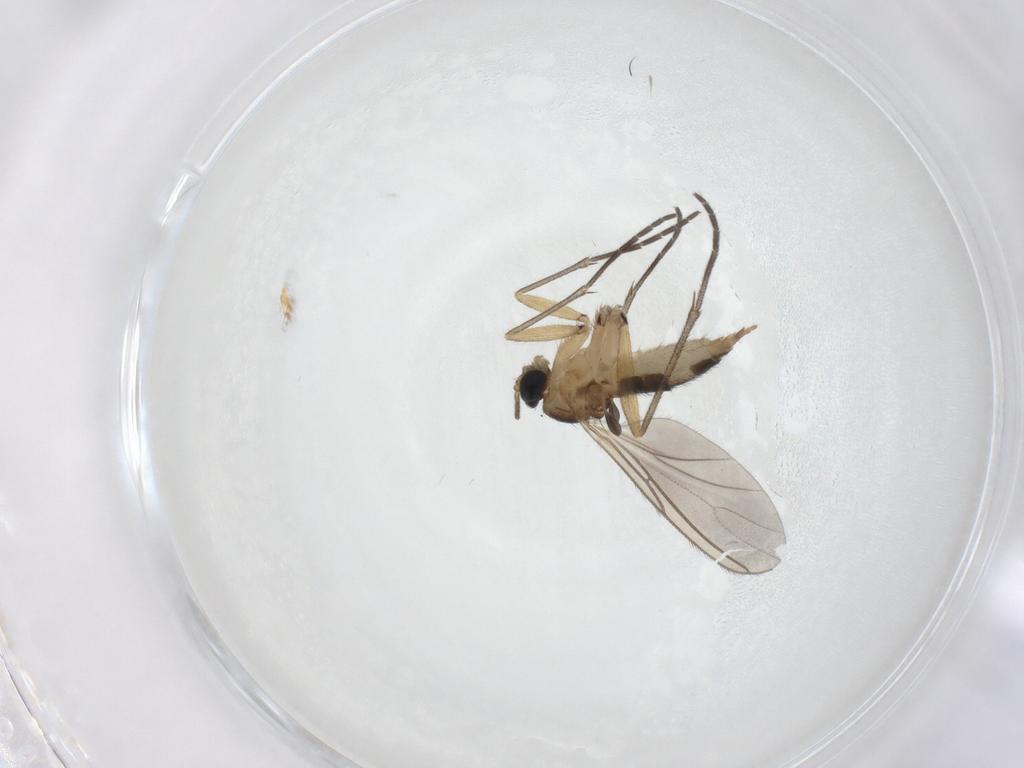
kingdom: Animalia
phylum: Arthropoda
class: Insecta
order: Diptera
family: Sciaridae
